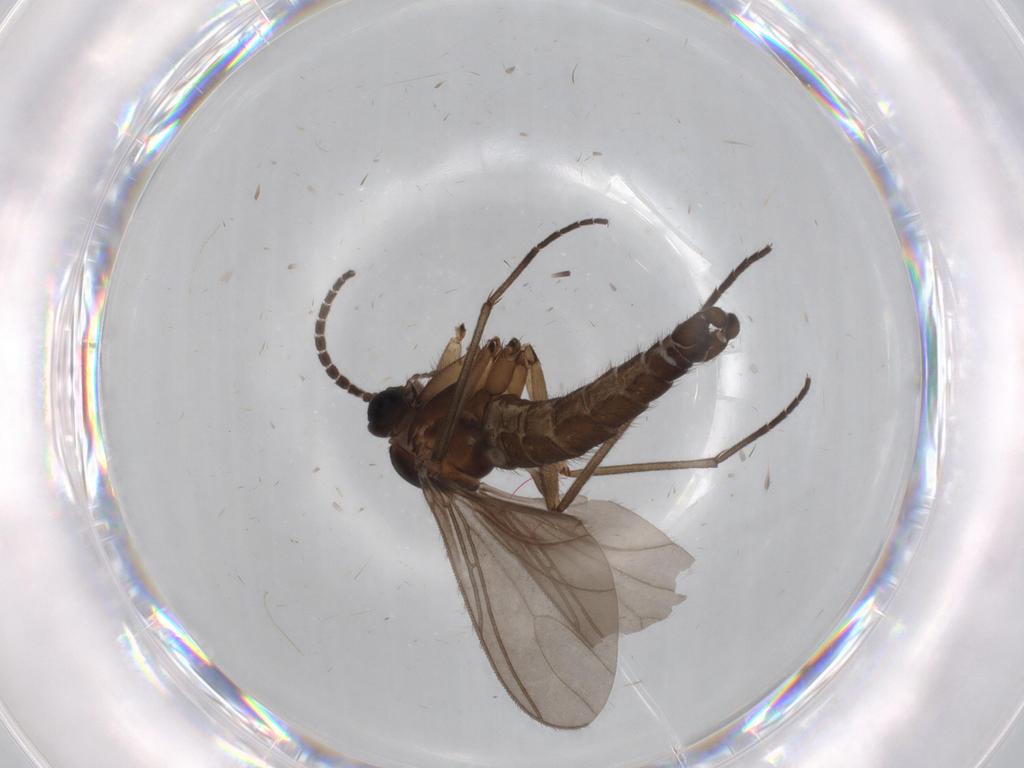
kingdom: Animalia
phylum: Arthropoda
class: Insecta
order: Diptera
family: Sciaridae
